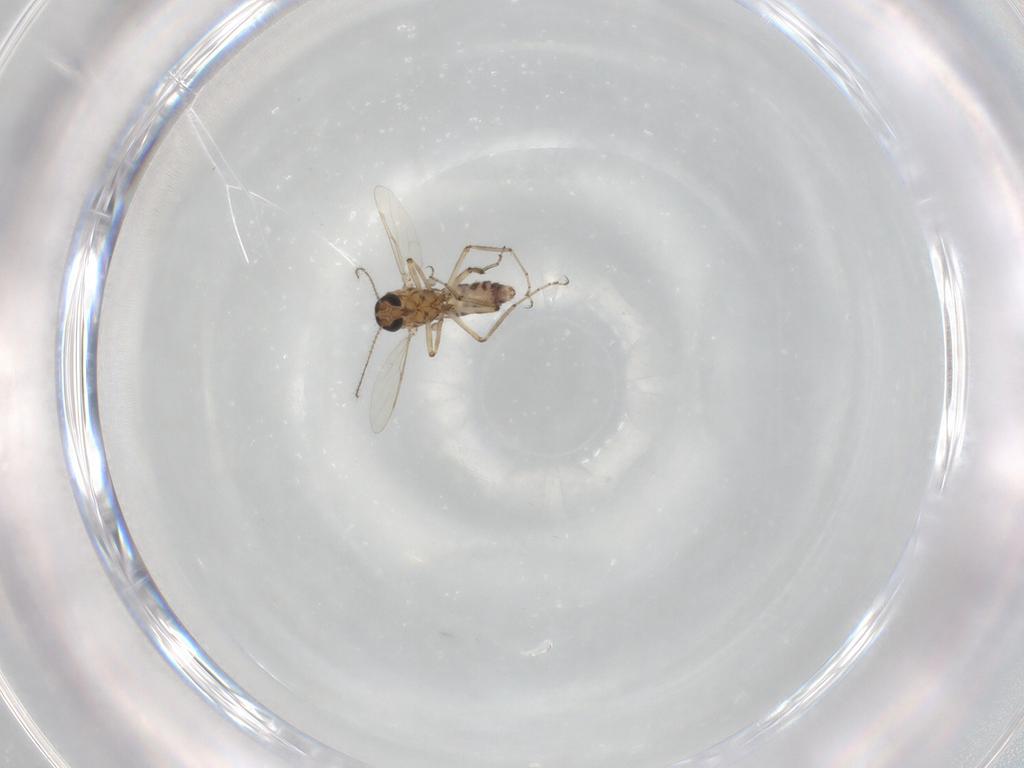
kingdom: Animalia
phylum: Arthropoda
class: Insecta
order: Diptera
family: Ceratopogonidae
